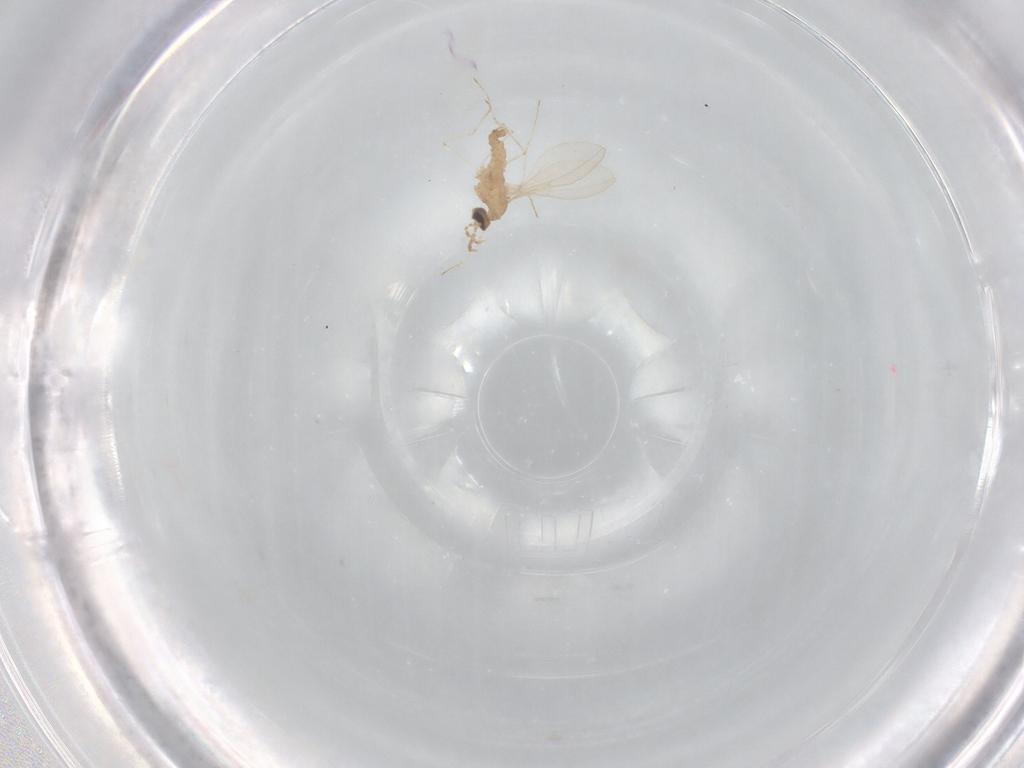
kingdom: Animalia
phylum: Arthropoda
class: Insecta
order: Diptera
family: Cecidomyiidae
